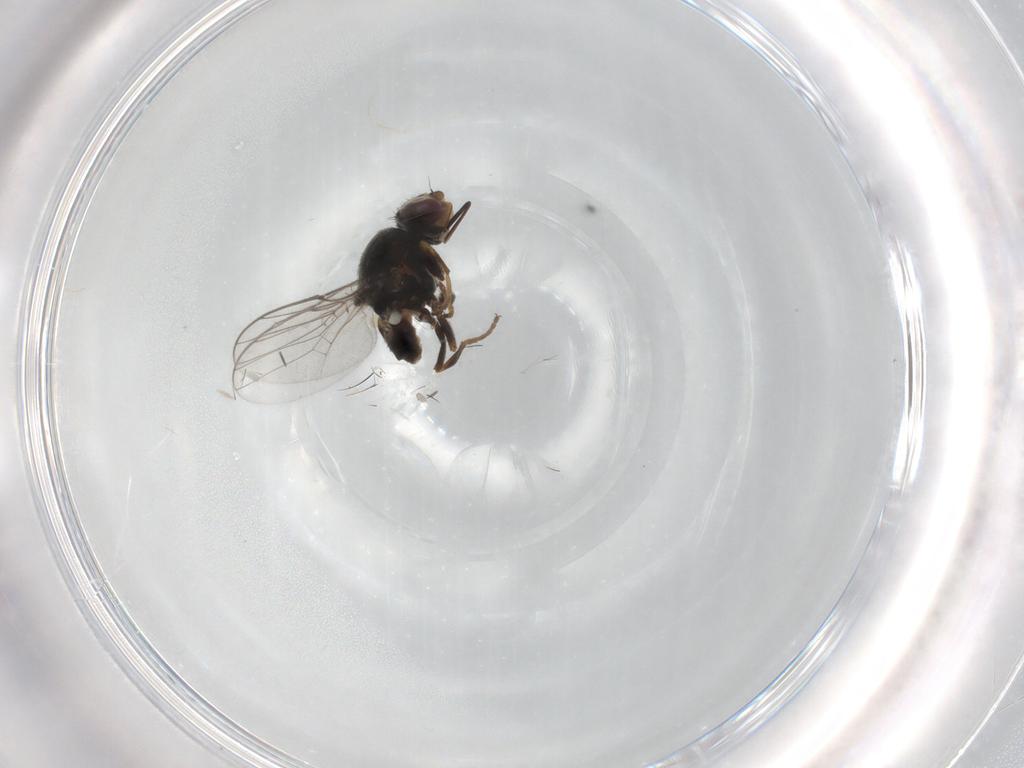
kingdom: Animalia
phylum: Arthropoda
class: Insecta
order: Diptera
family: Chloropidae
